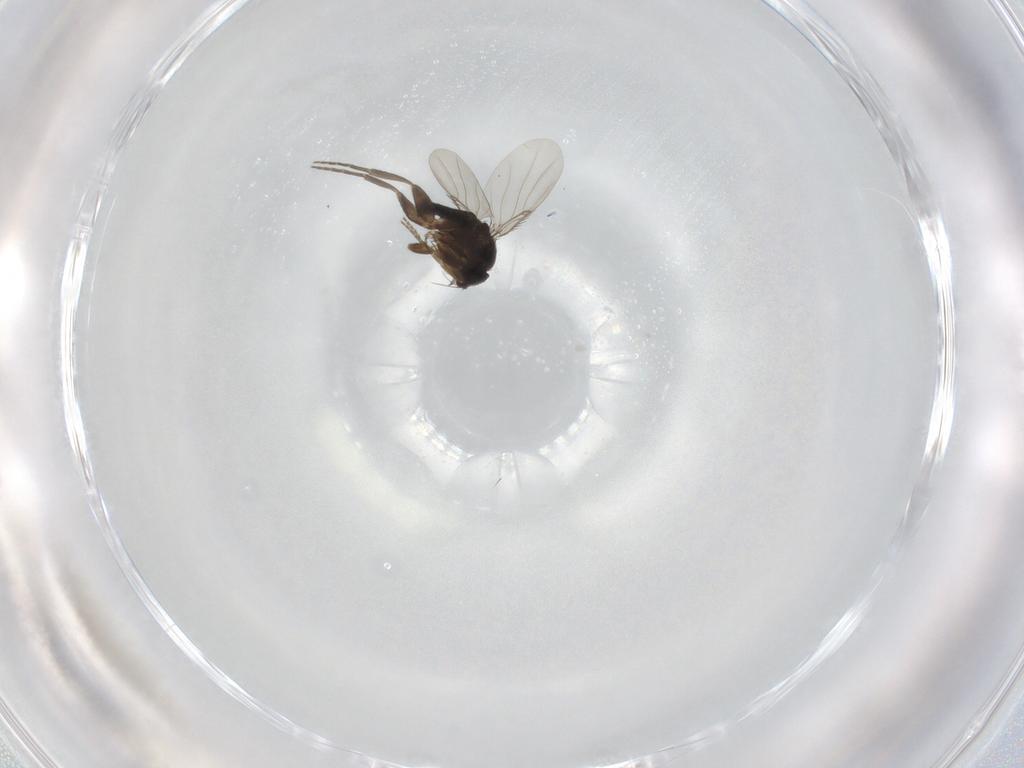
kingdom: Animalia
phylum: Arthropoda
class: Insecta
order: Diptera
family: Phoridae
